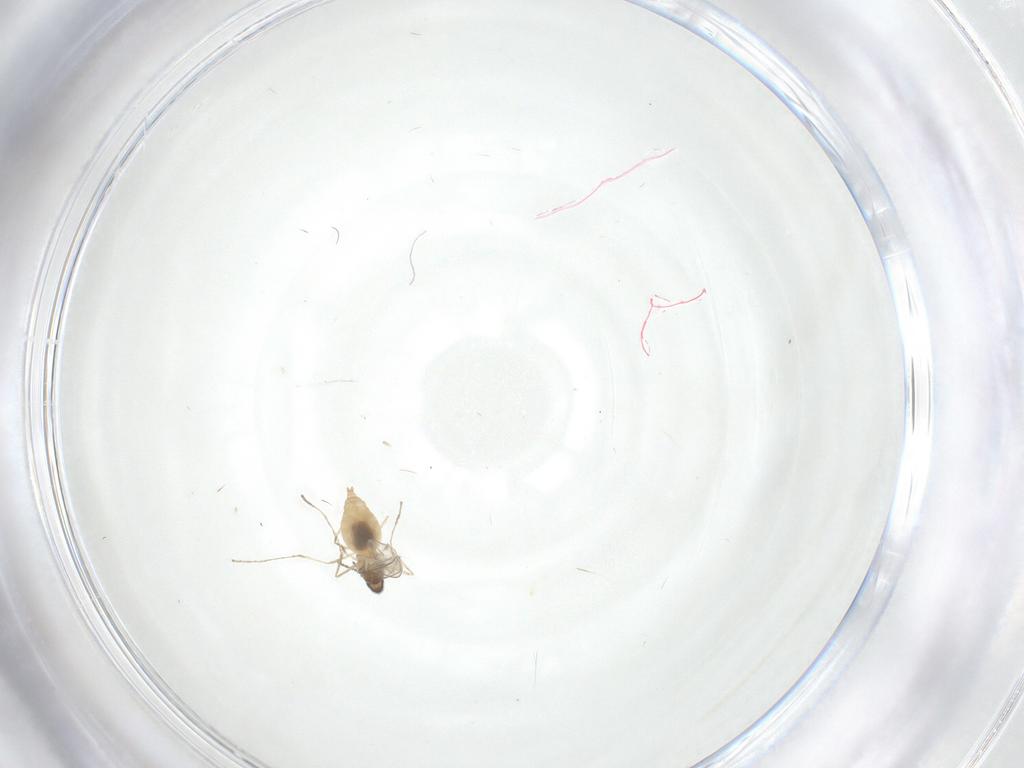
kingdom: Animalia
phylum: Arthropoda
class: Insecta
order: Diptera
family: Cecidomyiidae
